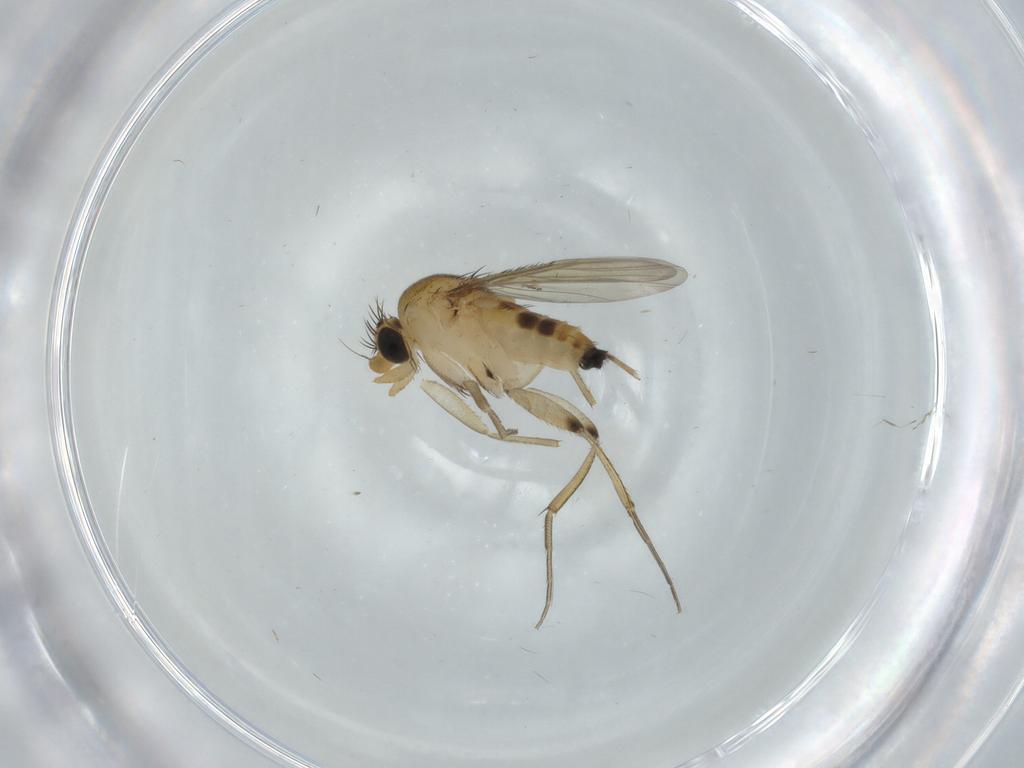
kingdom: Animalia
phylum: Arthropoda
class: Insecta
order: Diptera
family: Phoridae
